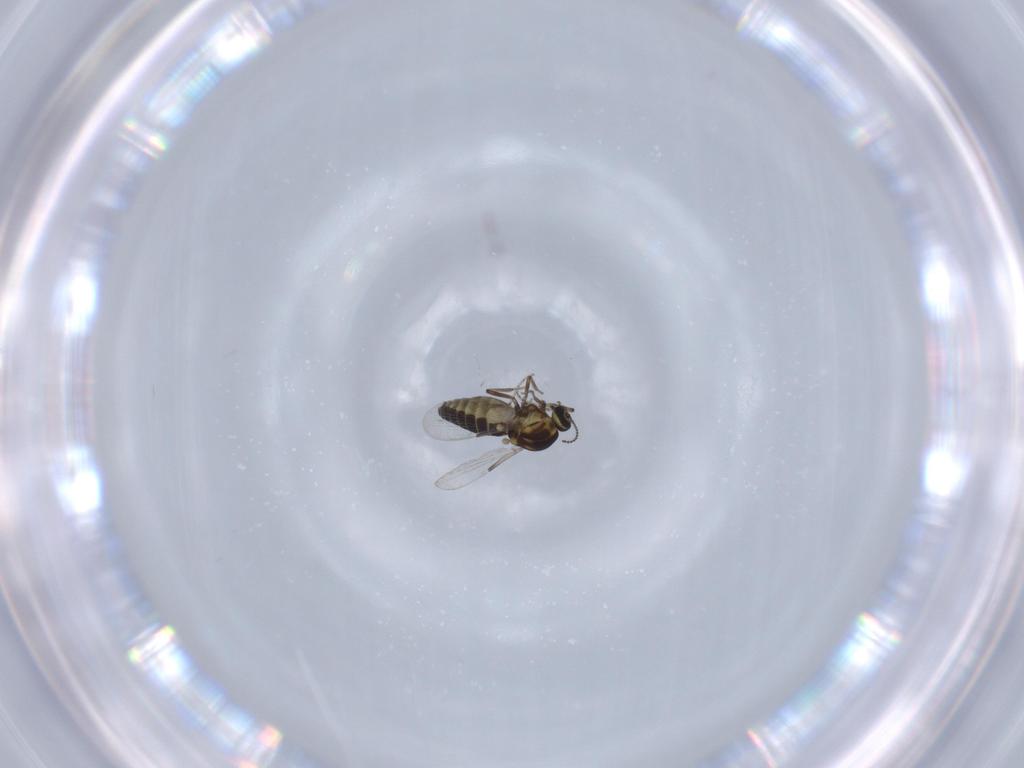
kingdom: Animalia
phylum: Arthropoda
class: Insecta
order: Diptera
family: Ceratopogonidae
